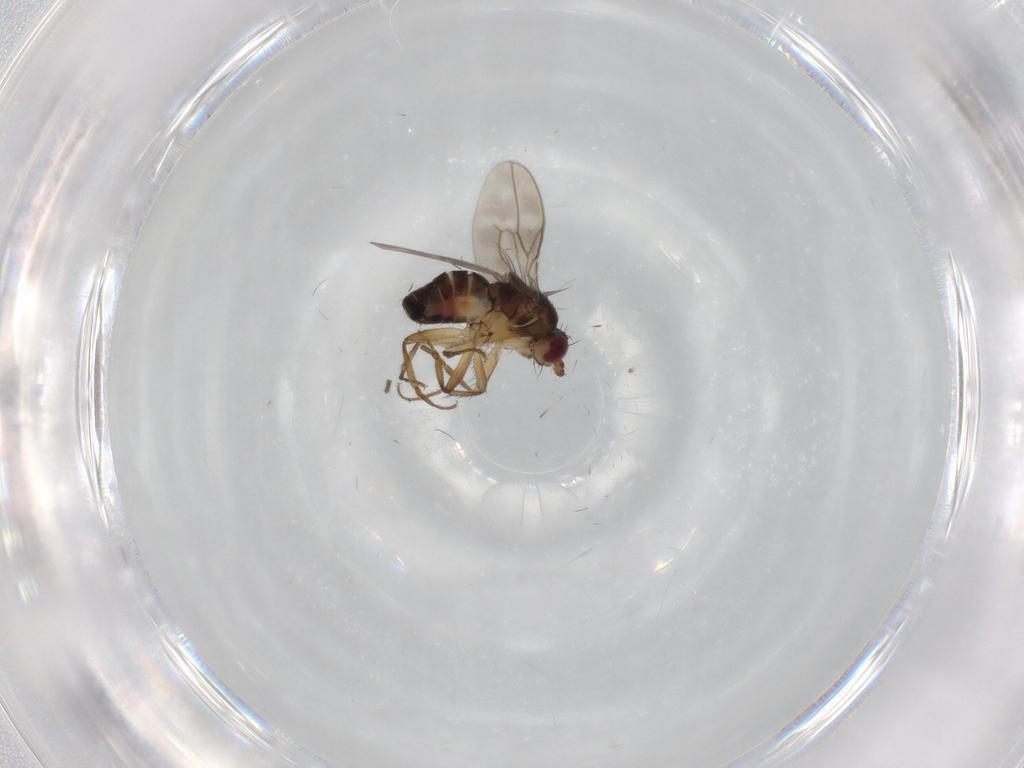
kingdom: Animalia
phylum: Arthropoda
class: Insecta
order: Diptera
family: Sphaeroceridae
